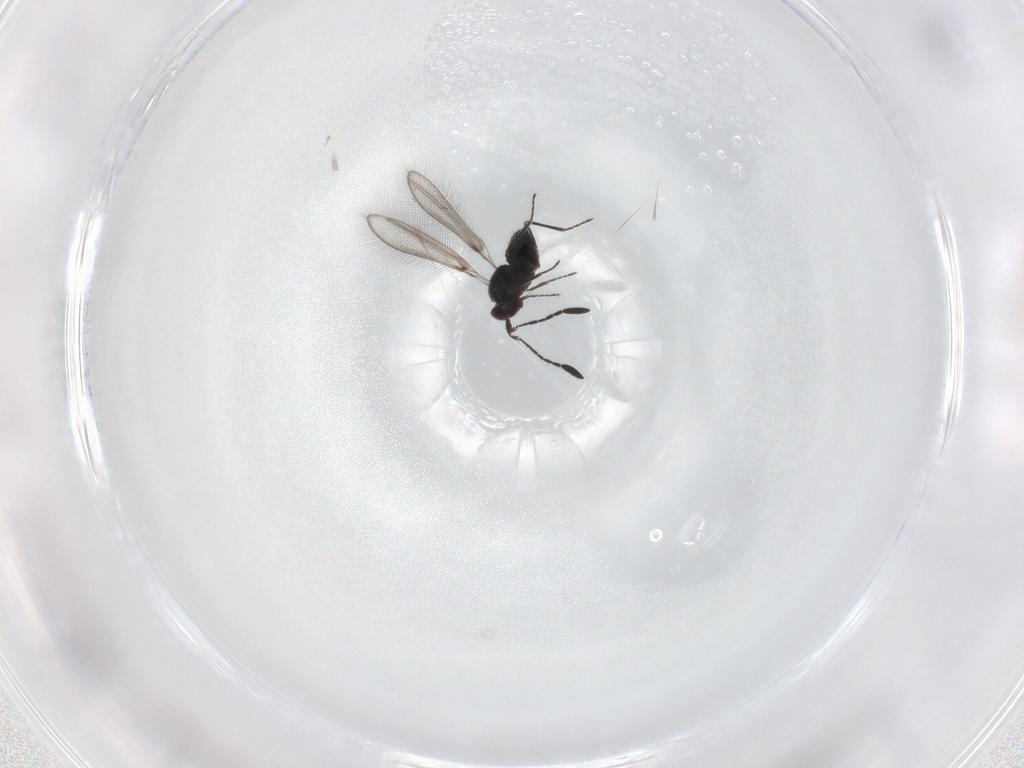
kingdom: Animalia
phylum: Arthropoda
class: Insecta
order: Hymenoptera
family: Mymaridae
